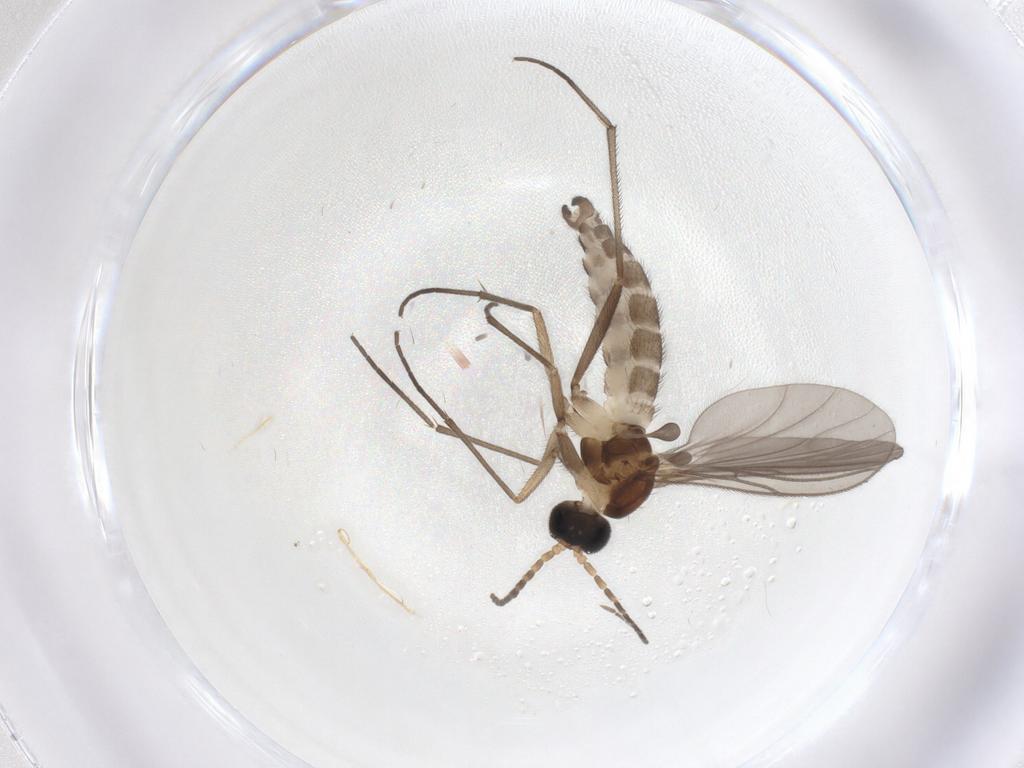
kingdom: Animalia
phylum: Arthropoda
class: Insecta
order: Diptera
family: Sciaridae
